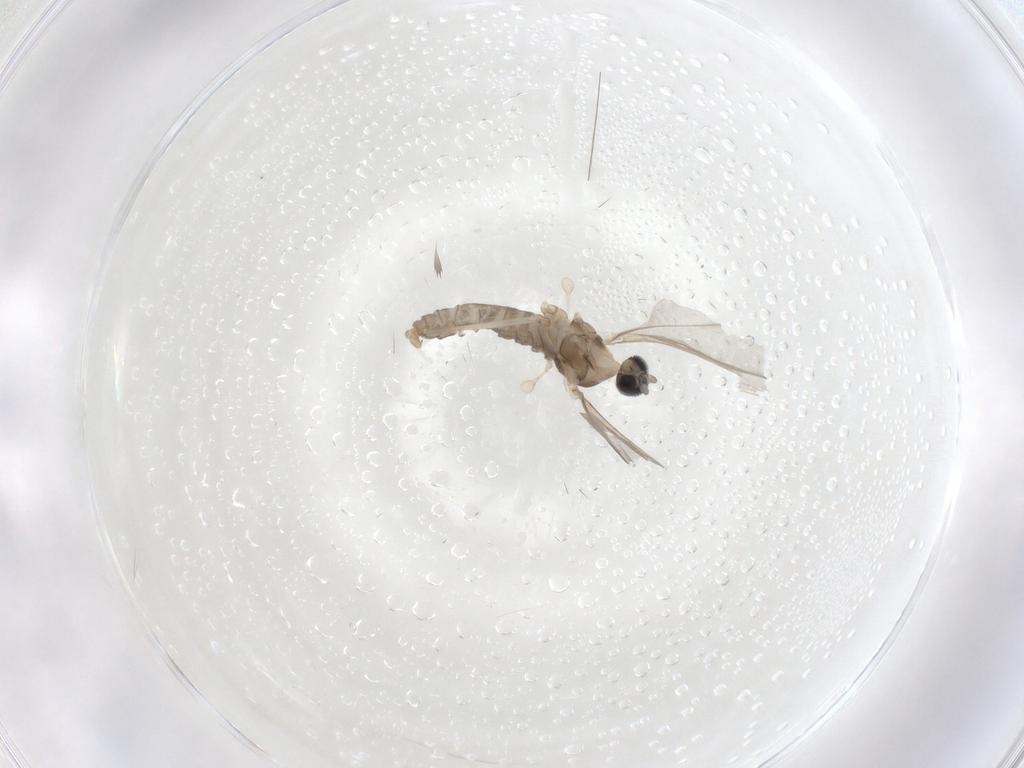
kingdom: Animalia
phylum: Arthropoda
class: Insecta
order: Diptera
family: Cecidomyiidae
